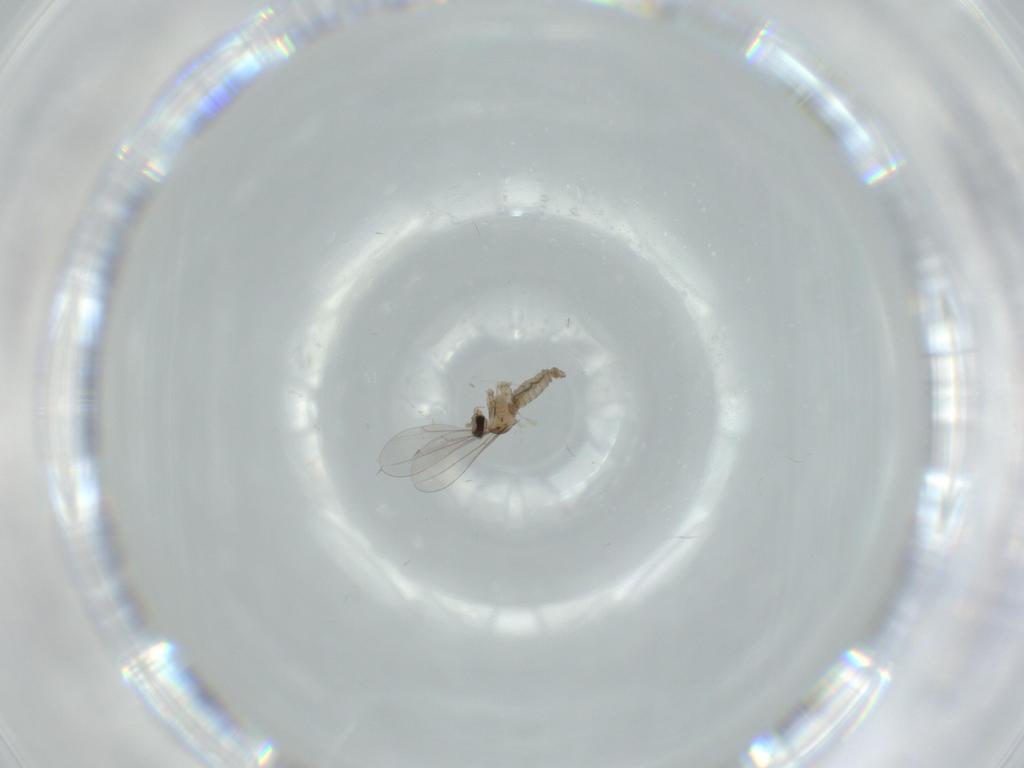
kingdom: Animalia
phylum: Arthropoda
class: Insecta
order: Diptera
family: Cecidomyiidae
